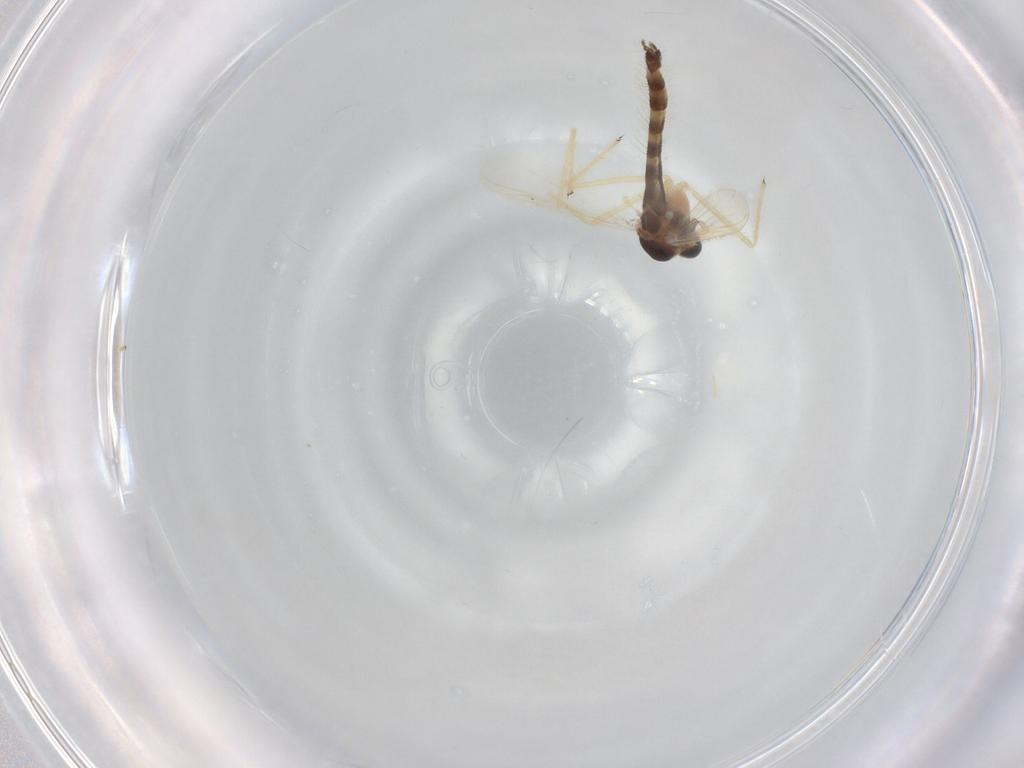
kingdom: Animalia
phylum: Arthropoda
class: Insecta
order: Diptera
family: Chironomidae
